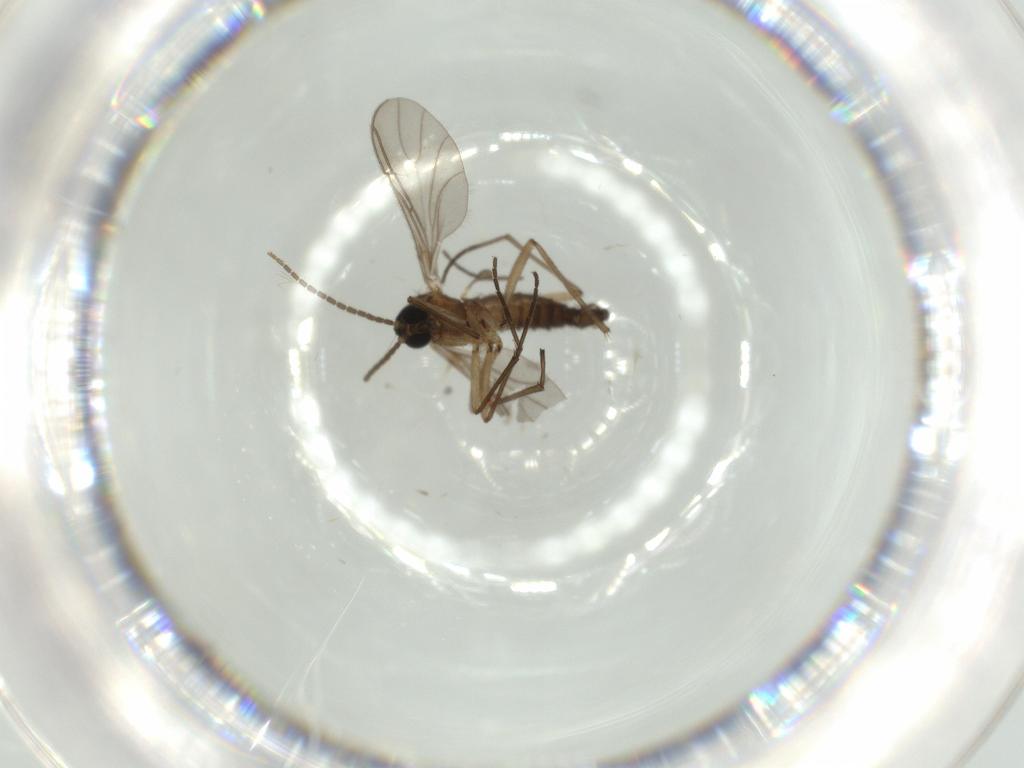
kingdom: Animalia
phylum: Arthropoda
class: Insecta
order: Diptera
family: Sciaridae
